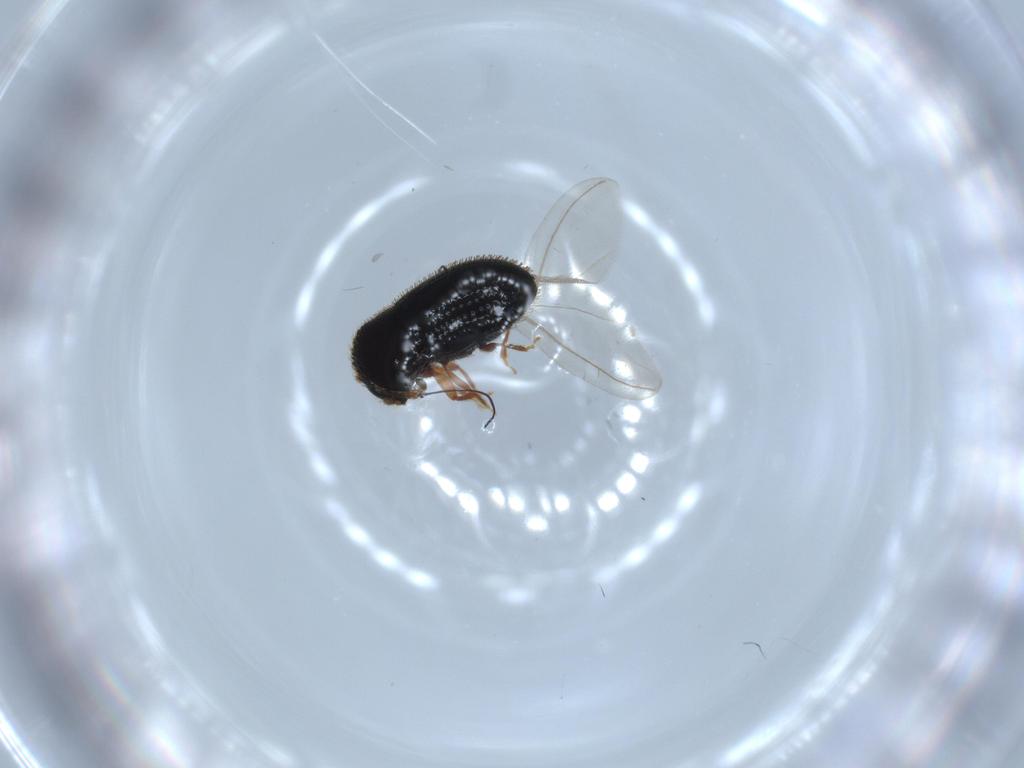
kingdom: Animalia
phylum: Arthropoda
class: Insecta
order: Coleoptera
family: Curculionidae
